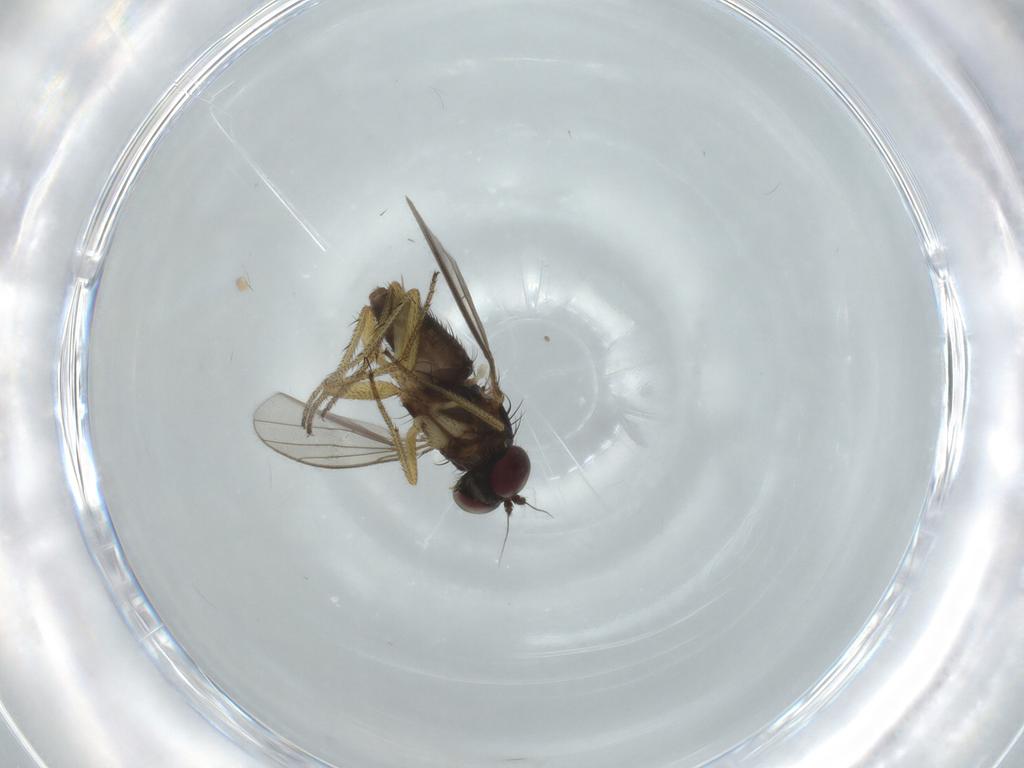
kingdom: Animalia
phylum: Arthropoda
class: Insecta
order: Diptera
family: Dolichopodidae
